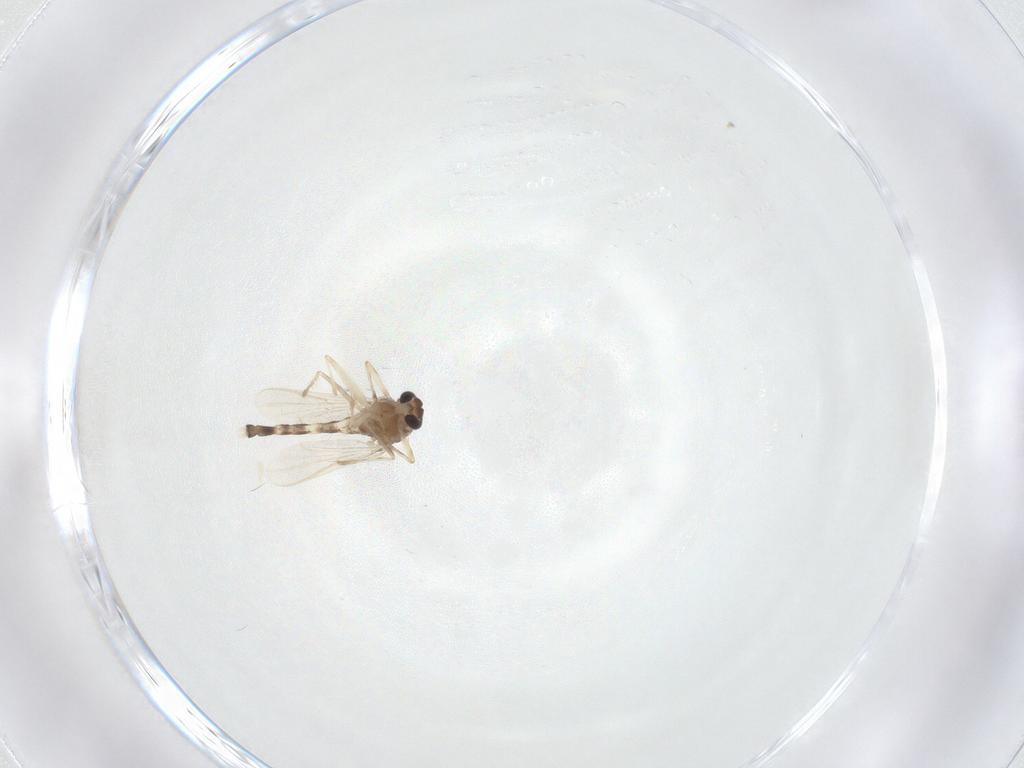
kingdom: Animalia
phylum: Arthropoda
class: Insecta
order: Diptera
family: Chironomidae
